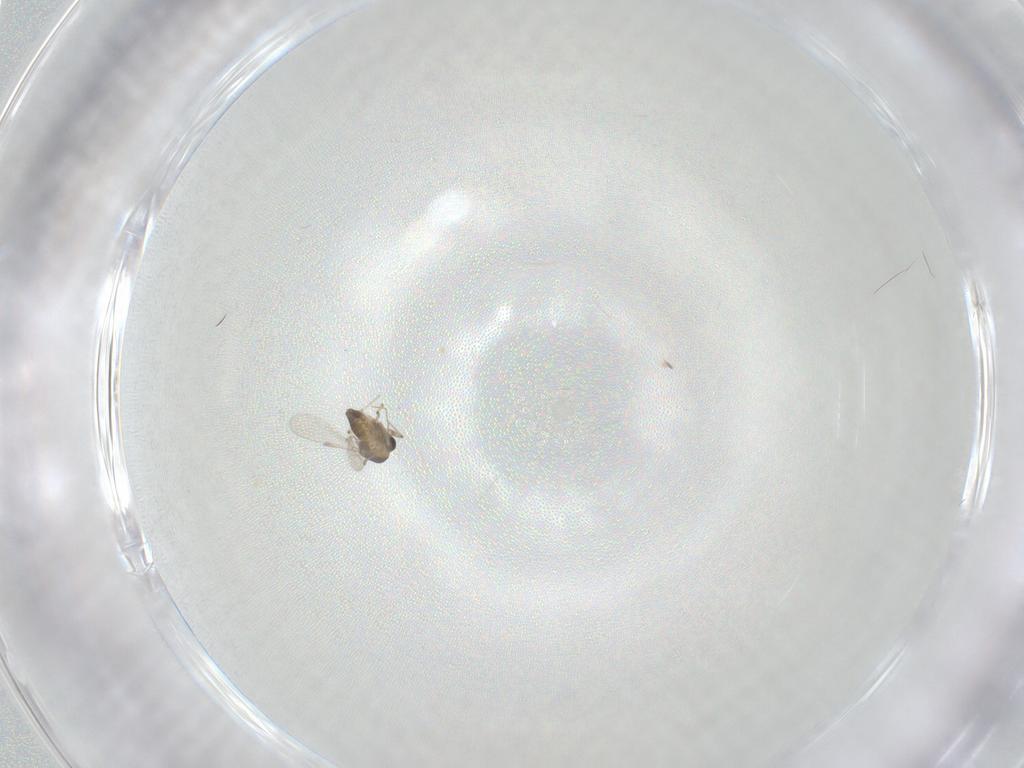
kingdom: Animalia
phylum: Arthropoda
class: Insecta
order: Diptera
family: Chironomidae
